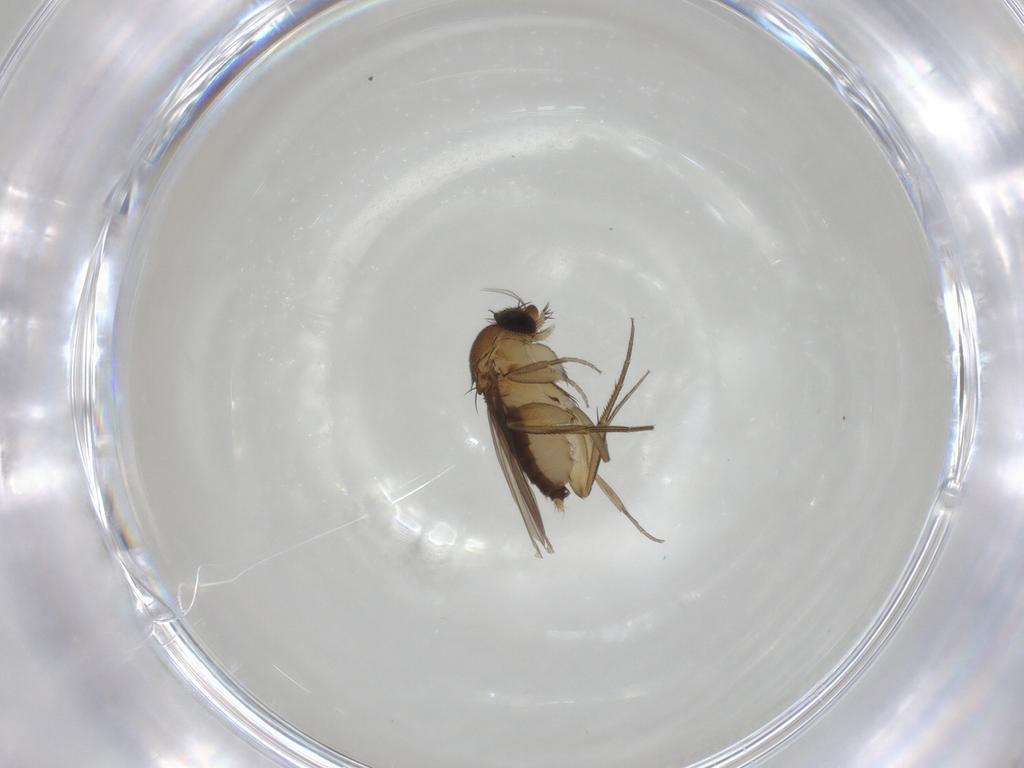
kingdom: Animalia
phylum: Arthropoda
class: Insecta
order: Diptera
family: Phoridae
